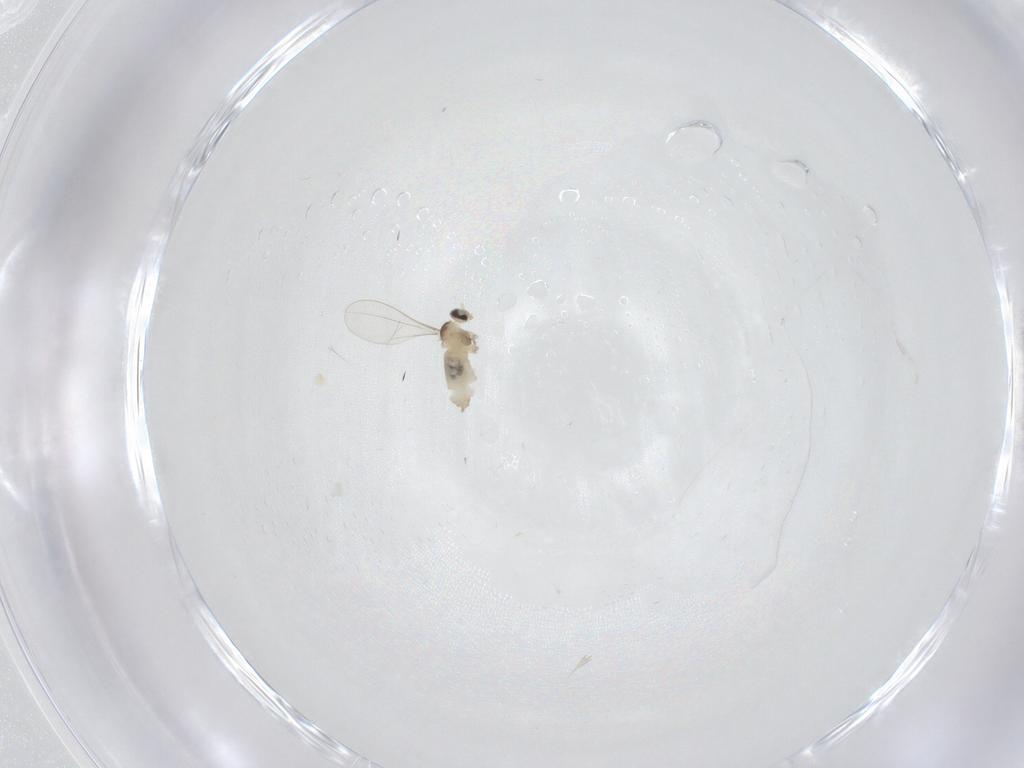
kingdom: Animalia
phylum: Arthropoda
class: Insecta
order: Diptera
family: Cecidomyiidae
